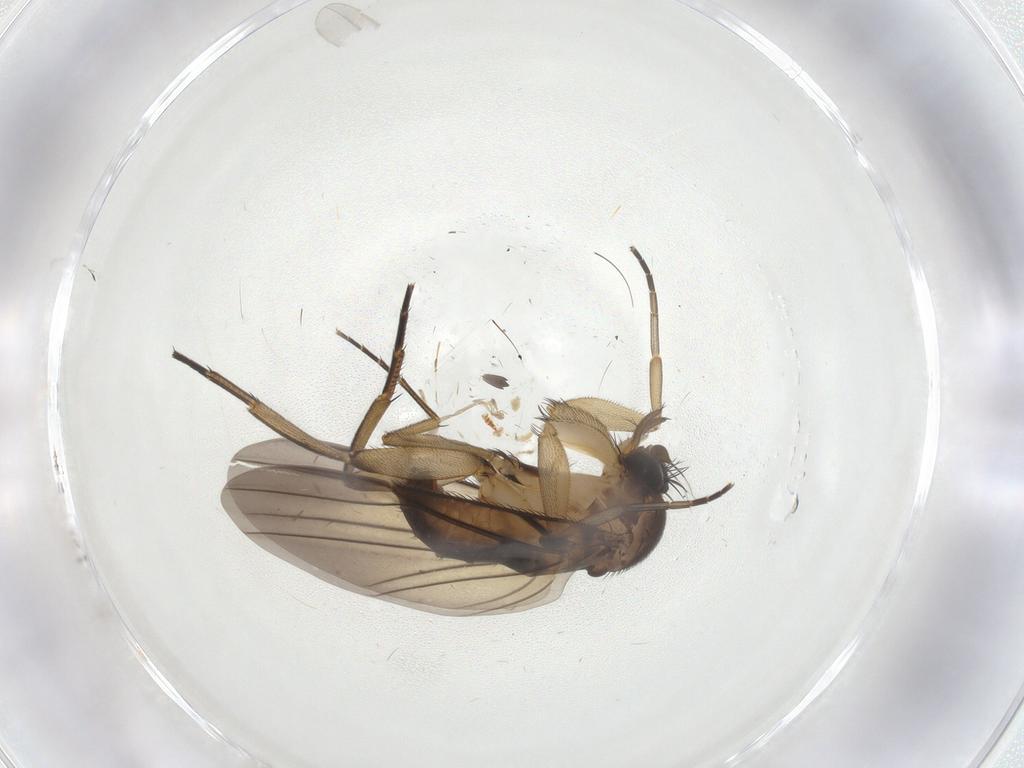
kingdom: Animalia
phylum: Arthropoda
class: Insecta
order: Diptera
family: Phoridae
